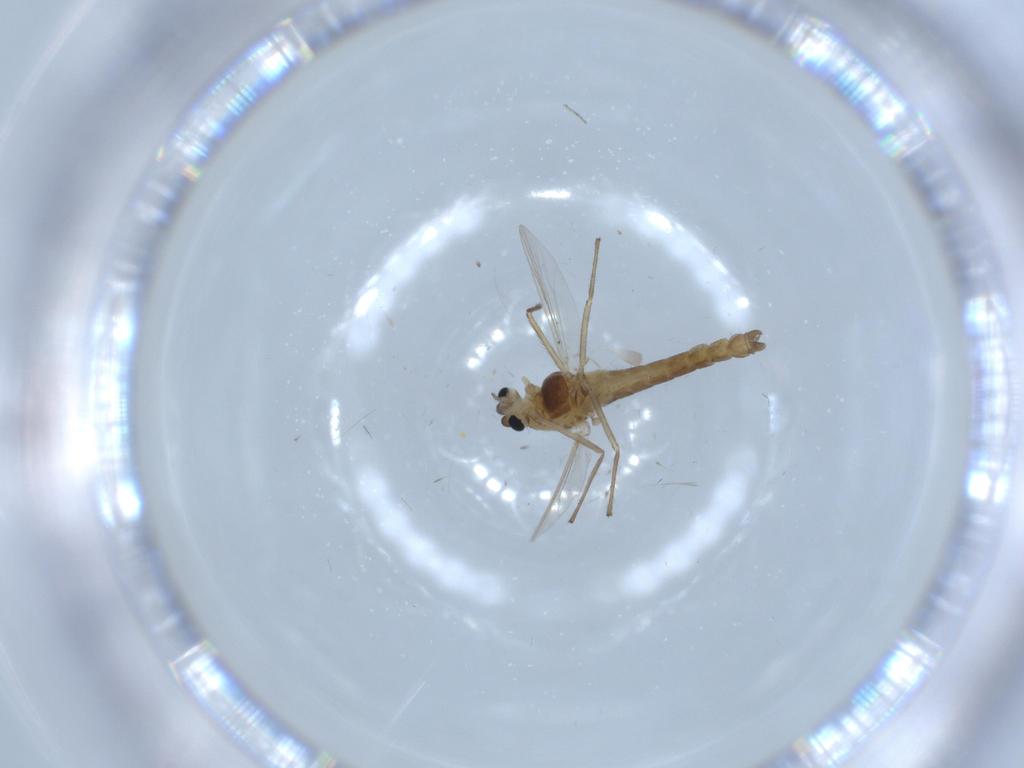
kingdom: Animalia
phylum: Arthropoda
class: Insecta
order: Diptera
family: Chironomidae
